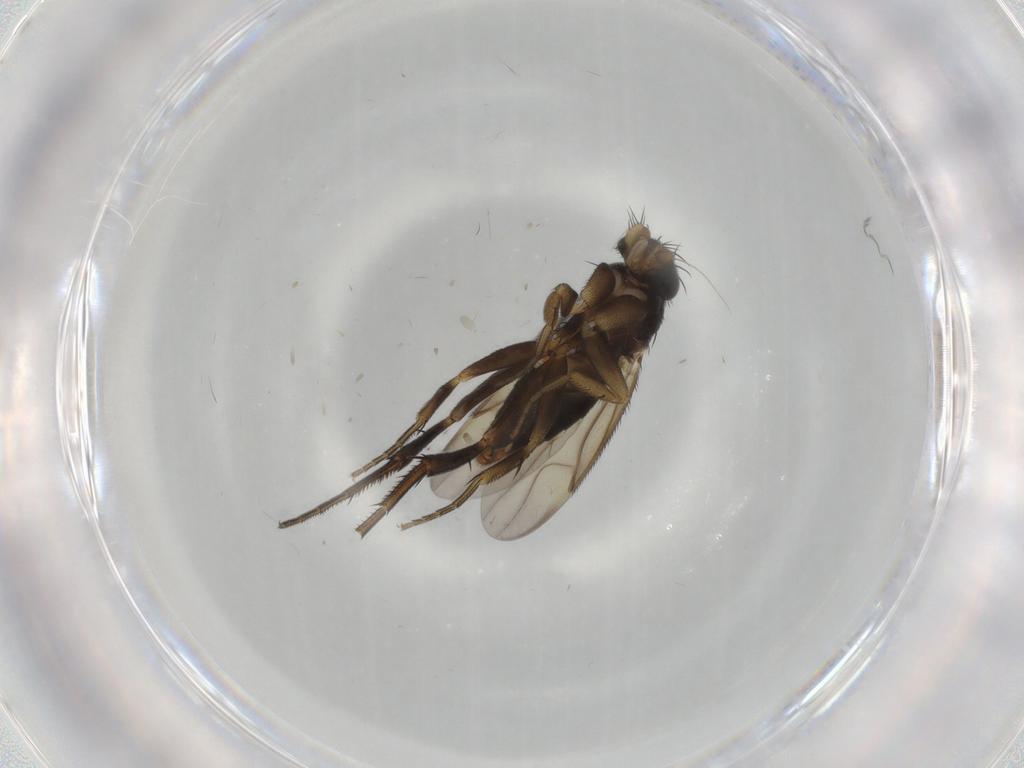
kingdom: Animalia
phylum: Arthropoda
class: Insecta
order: Diptera
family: Phoridae
